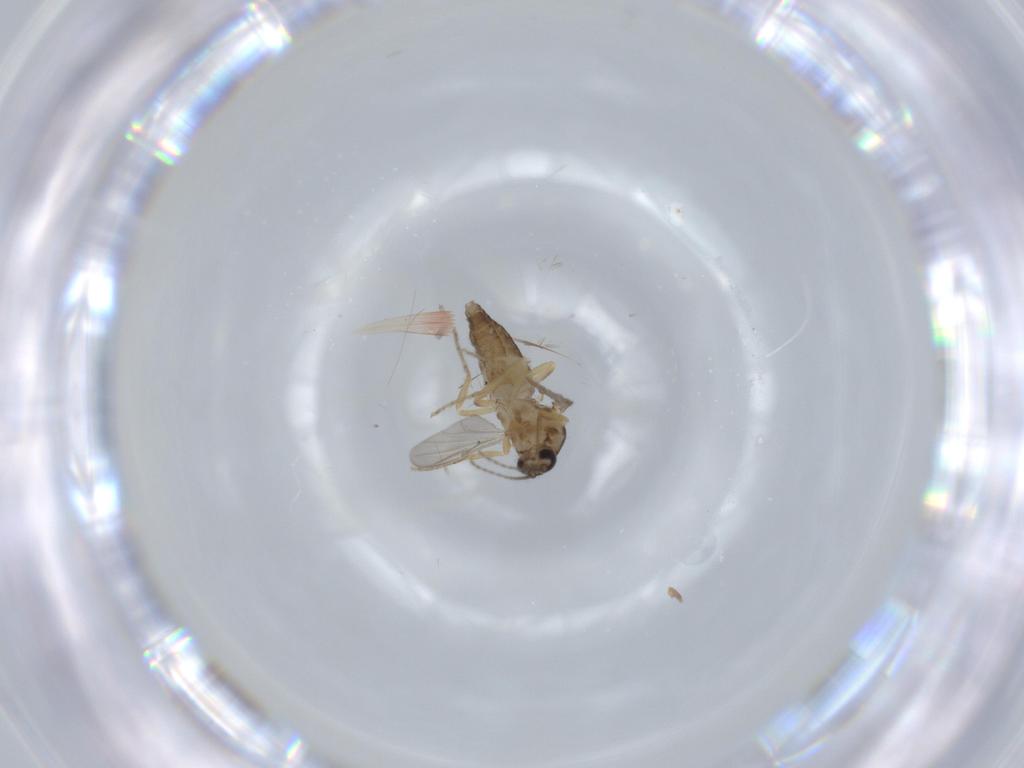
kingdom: Animalia
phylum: Arthropoda
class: Insecta
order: Diptera
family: Ceratopogonidae
